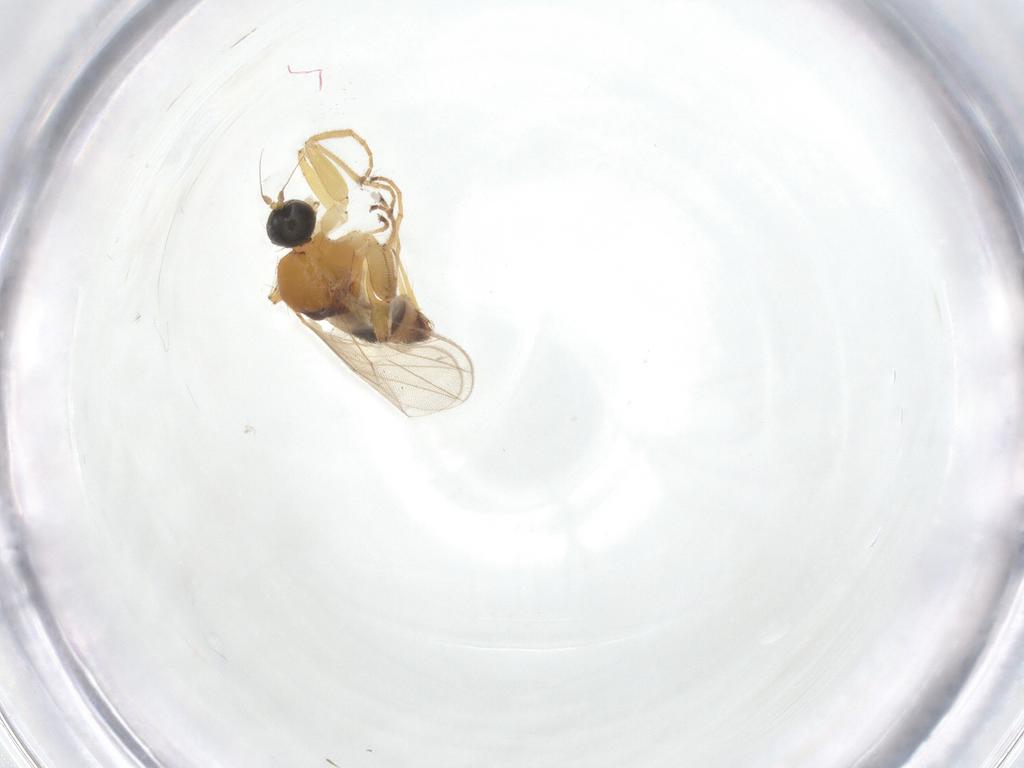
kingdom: Animalia
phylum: Arthropoda
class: Insecta
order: Diptera
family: Hybotidae
